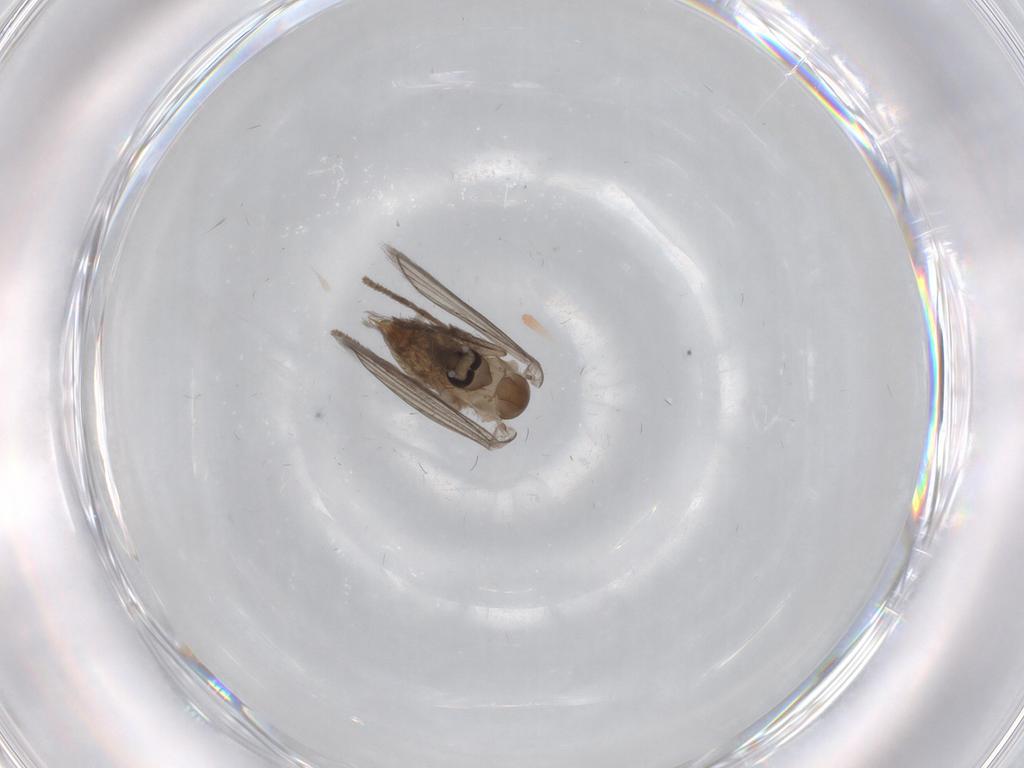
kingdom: Animalia
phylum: Arthropoda
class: Insecta
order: Diptera
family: Psychodidae
